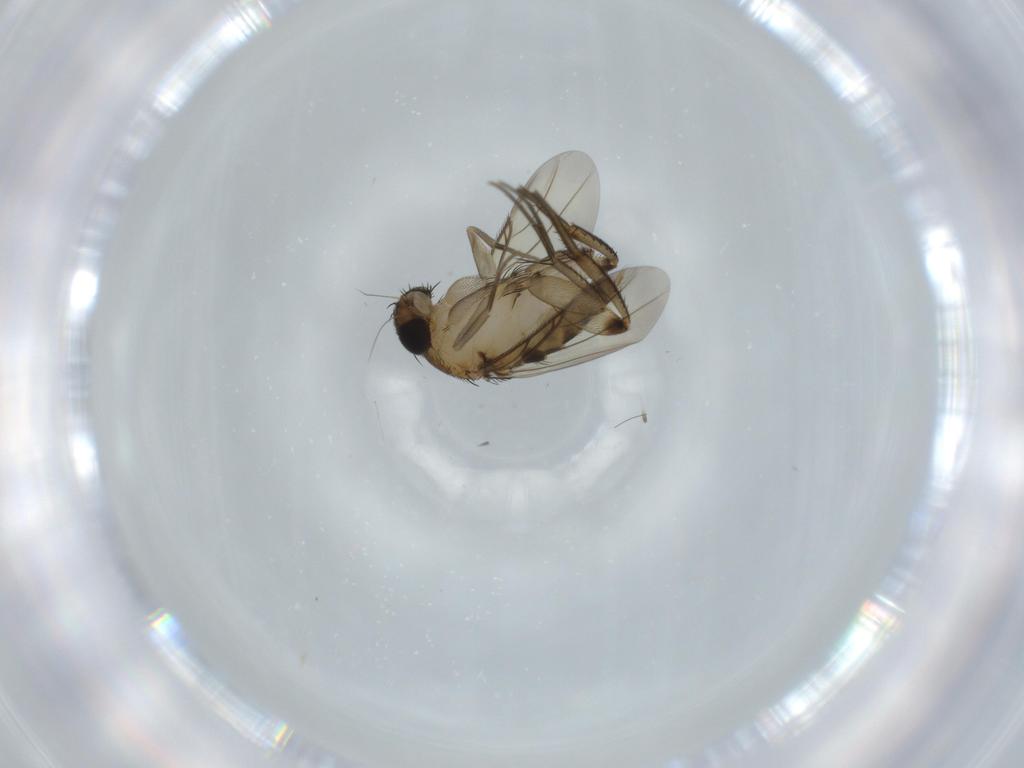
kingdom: Animalia
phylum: Arthropoda
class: Insecta
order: Diptera
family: Phoridae
